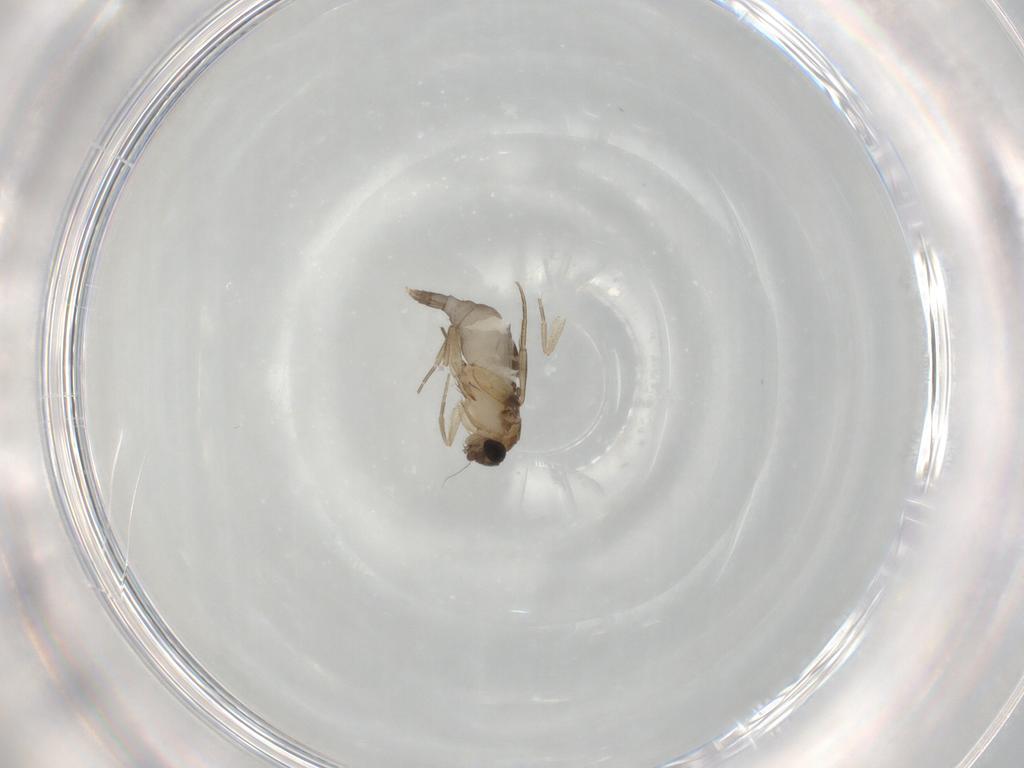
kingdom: Animalia
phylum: Arthropoda
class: Insecta
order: Diptera
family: Phoridae
